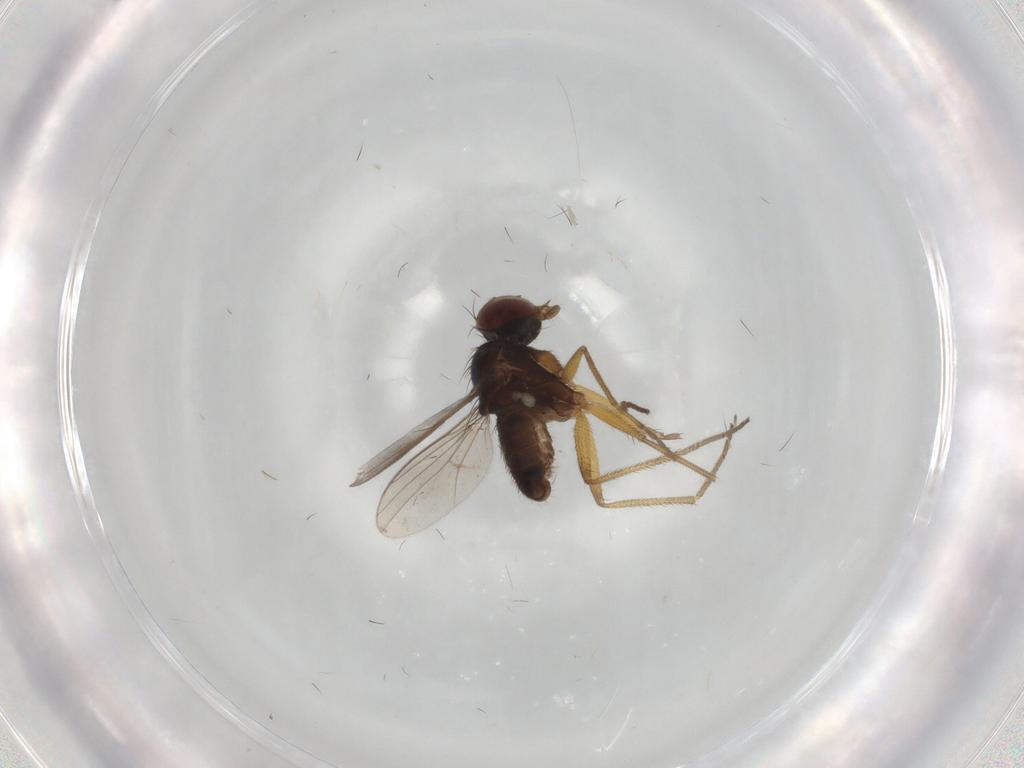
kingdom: Animalia
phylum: Arthropoda
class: Insecta
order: Diptera
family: Dolichopodidae
